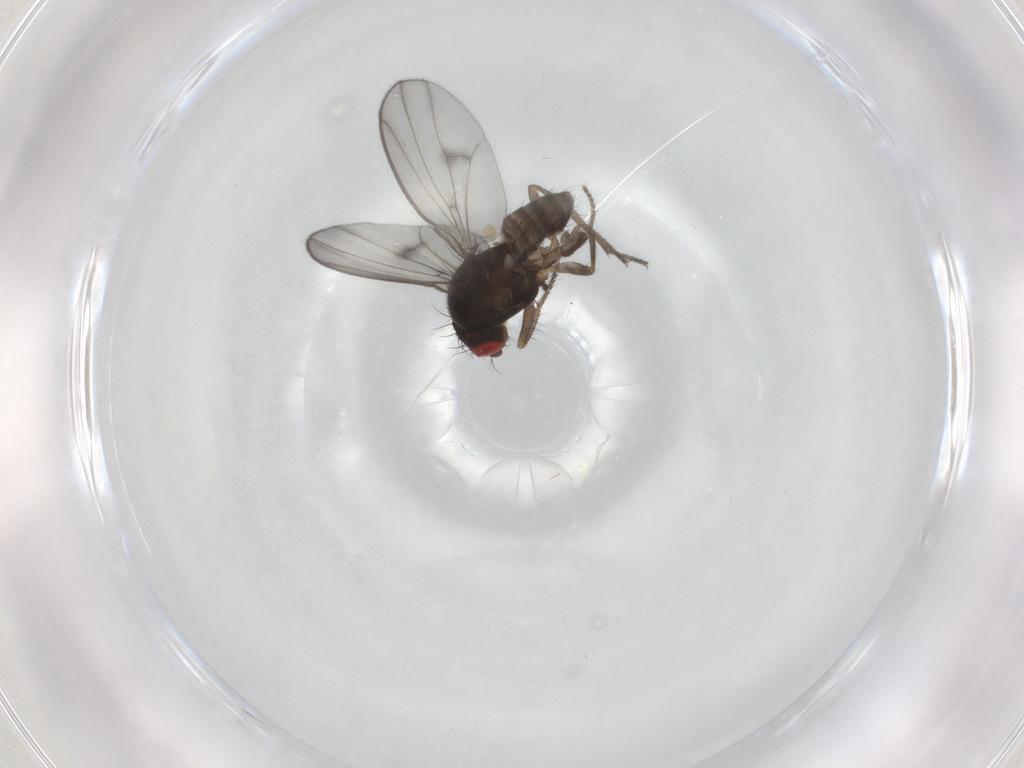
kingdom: Animalia
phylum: Arthropoda
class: Insecta
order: Diptera
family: Drosophilidae
